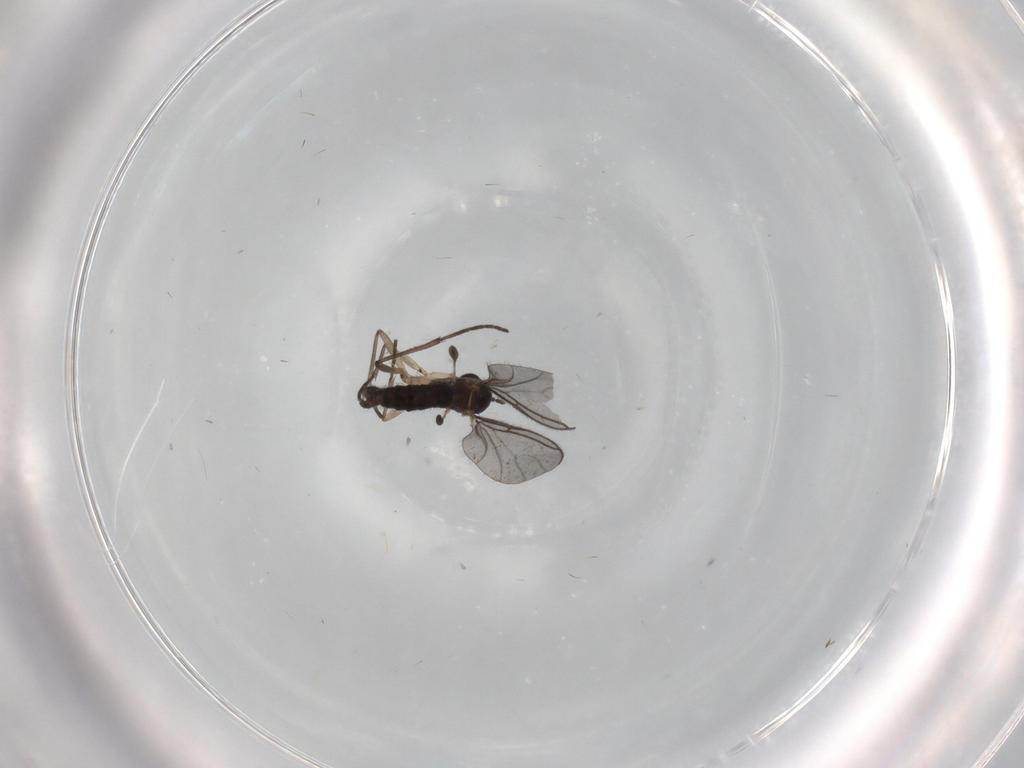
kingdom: Animalia
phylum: Arthropoda
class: Insecta
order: Diptera
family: Sciaridae
